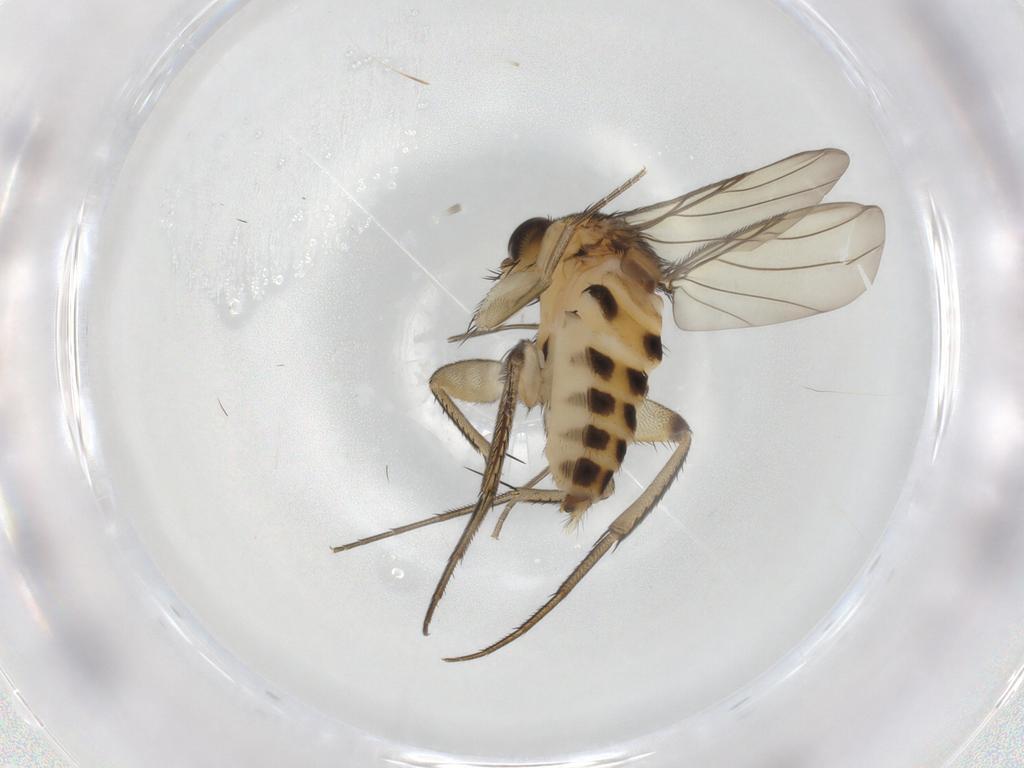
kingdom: Animalia
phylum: Arthropoda
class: Insecta
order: Diptera
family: Phoridae
